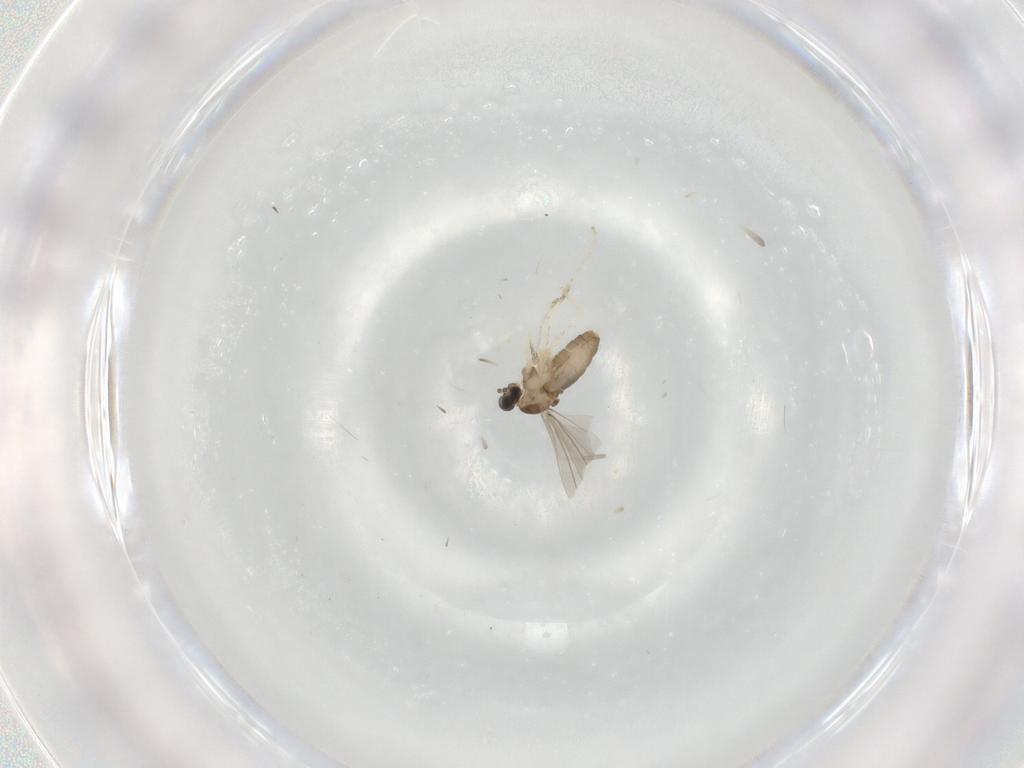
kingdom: Animalia
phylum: Arthropoda
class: Insecta
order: Diptera
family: Cecidomyiidae
